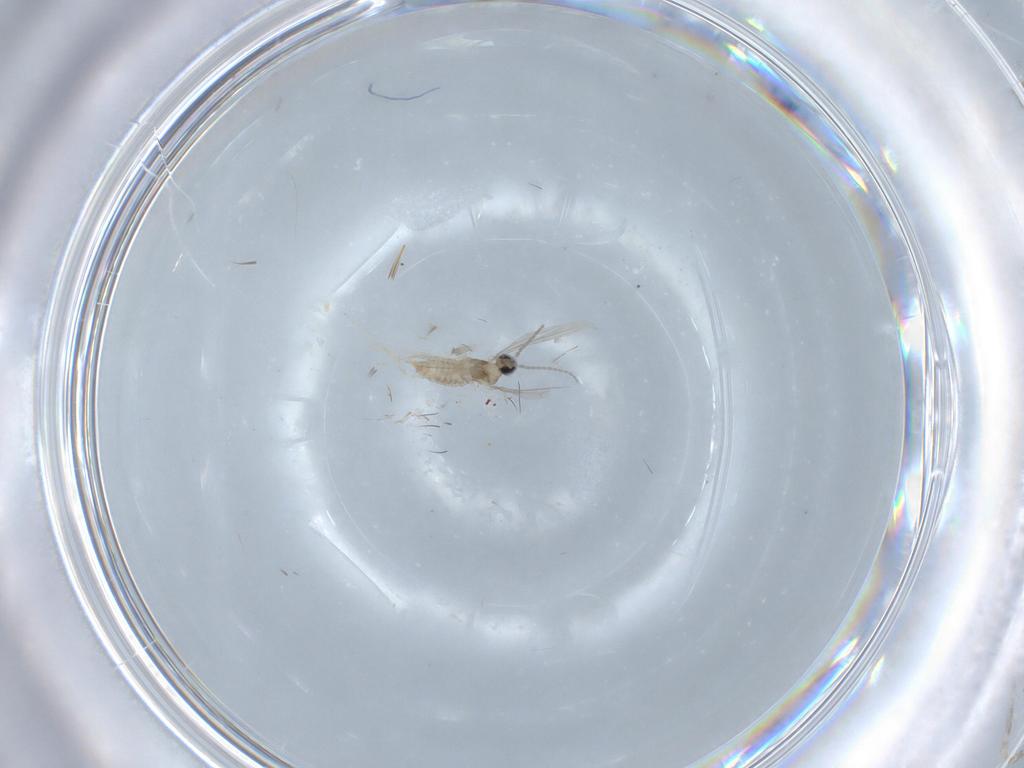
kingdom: Animalia
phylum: Arthropoda
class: Insecta
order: Diptera
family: Cecidomyiidae
